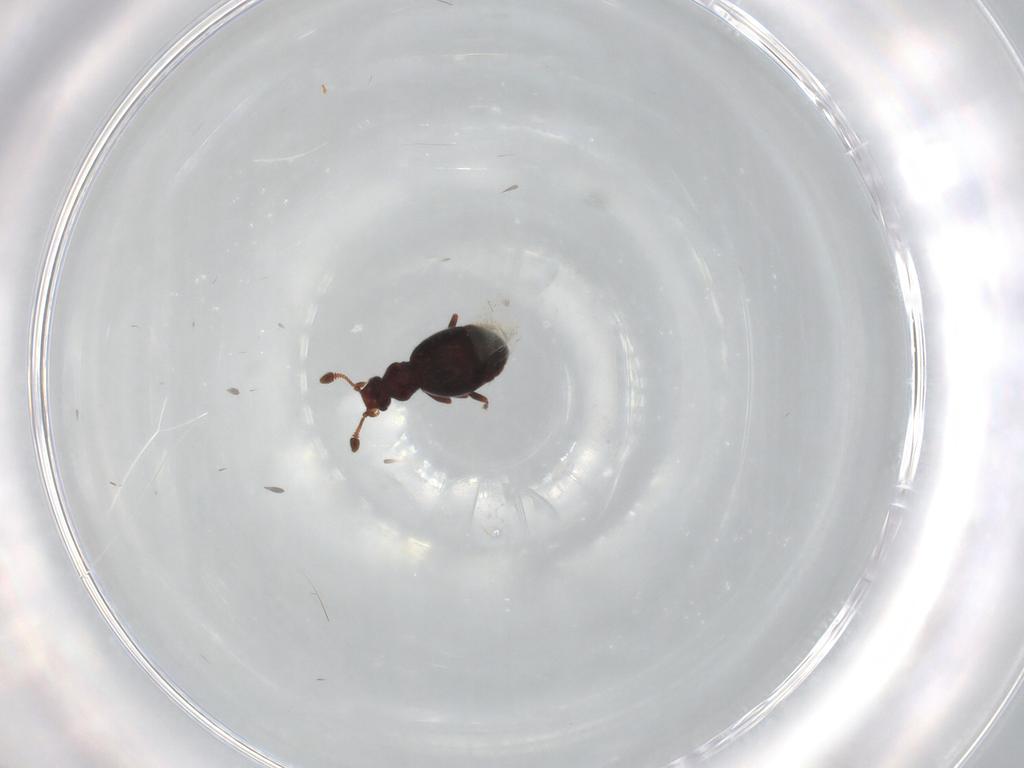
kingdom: Animalia
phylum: Arthropoda
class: Insecta
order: Coleoptera
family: Staphylinidae
